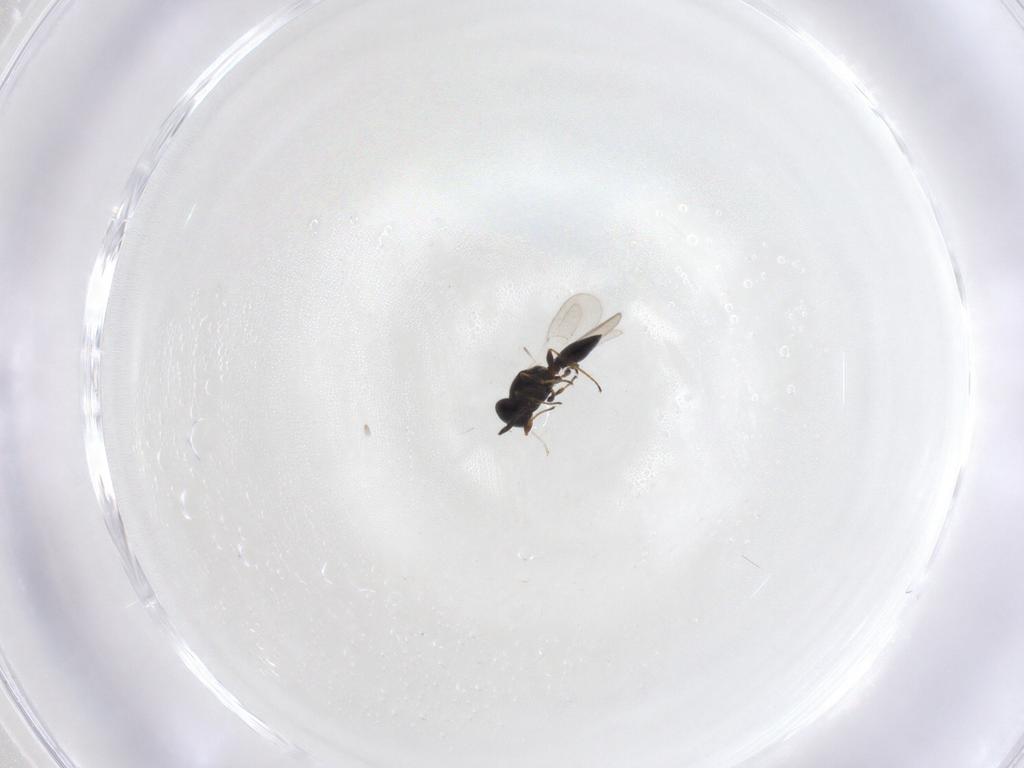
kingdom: Animalia
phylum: Arthropoda
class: Insecta
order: Hymenoptera
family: Platygastridae
